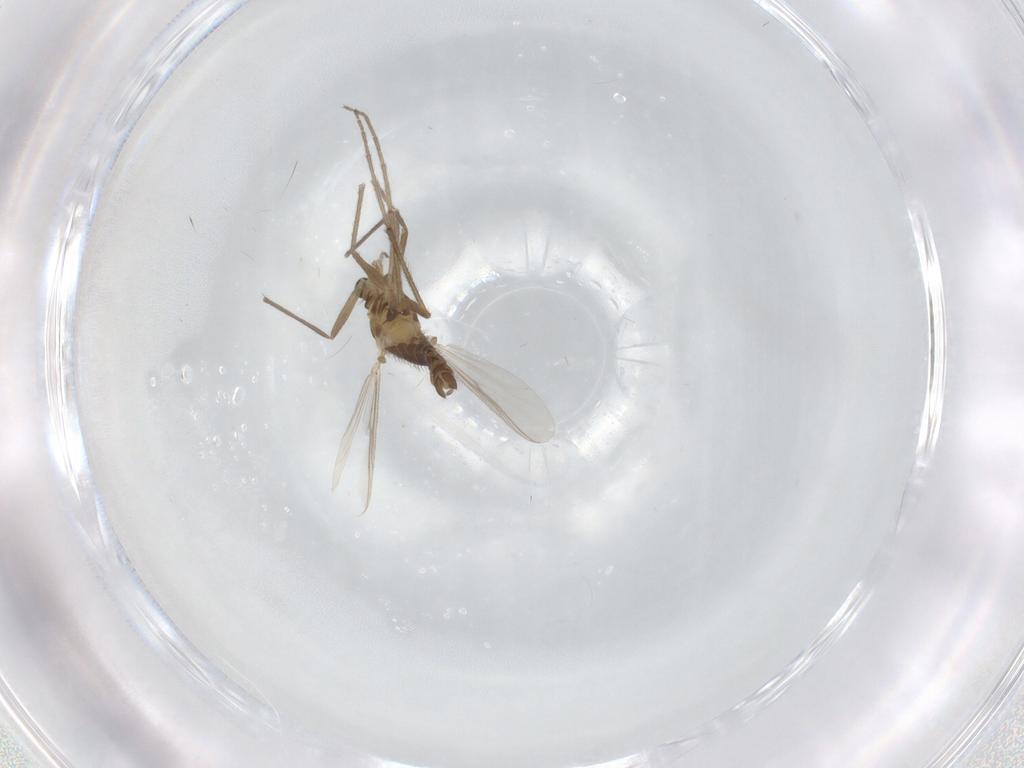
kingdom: Animalia
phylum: Arthropoda
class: Insecta
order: Diptera
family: Chironomidae
